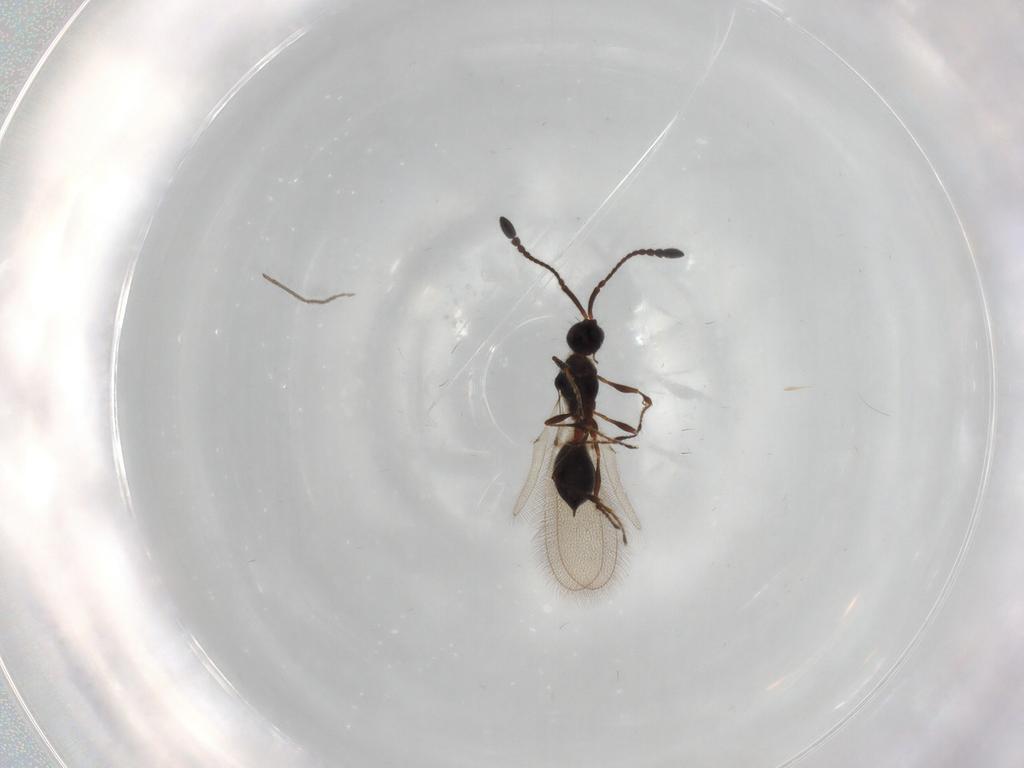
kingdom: Animalia
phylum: Arthropoda
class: Insecta
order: Hymenoptera
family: Diapriidae
